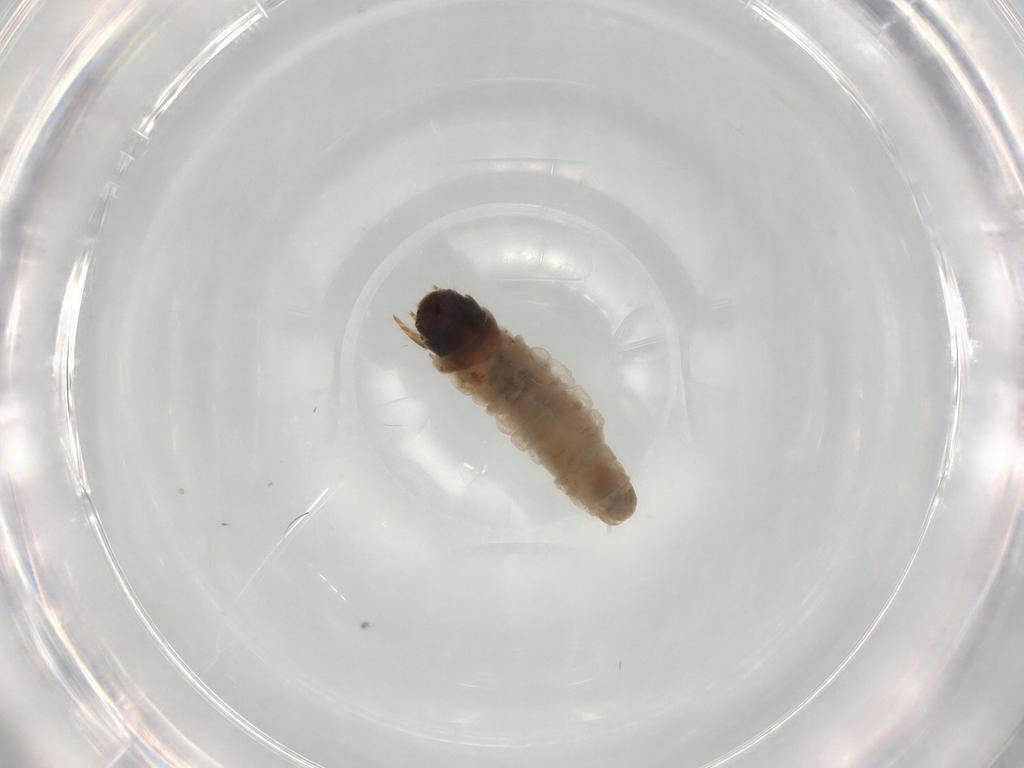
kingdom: Animalia
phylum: Arthropoda
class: Insecta
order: Lepidoptera
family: Psychidae
